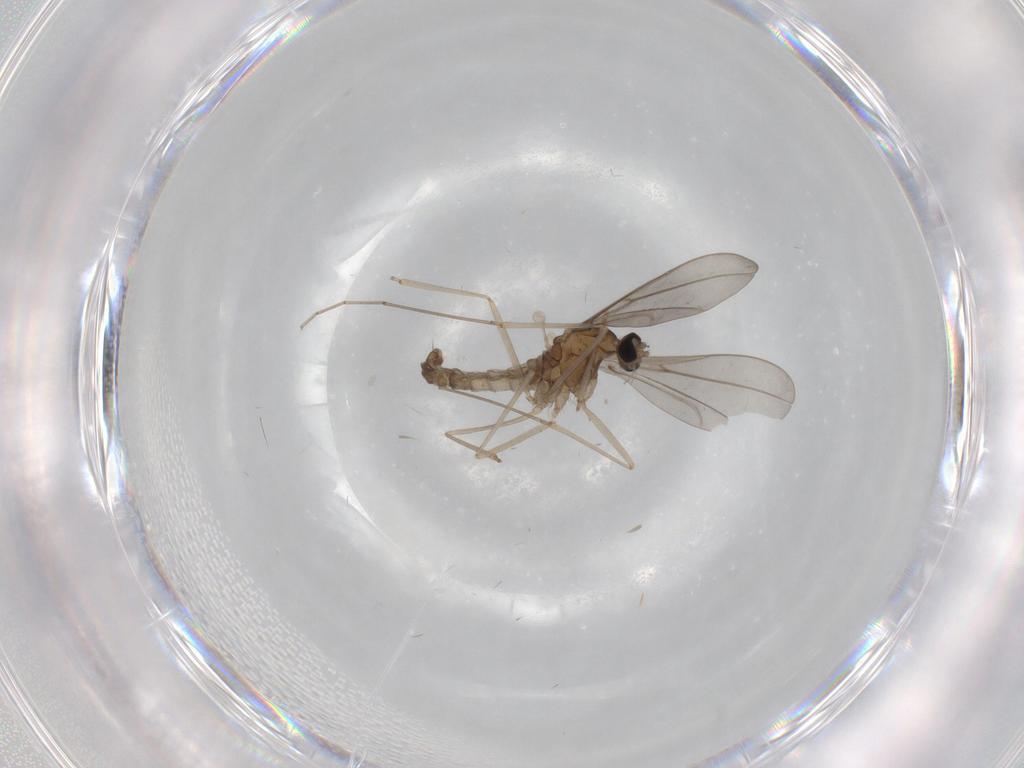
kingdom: Animalia
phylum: Arthropoda
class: Insecta
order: Diptera
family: Cecidomyiidae
